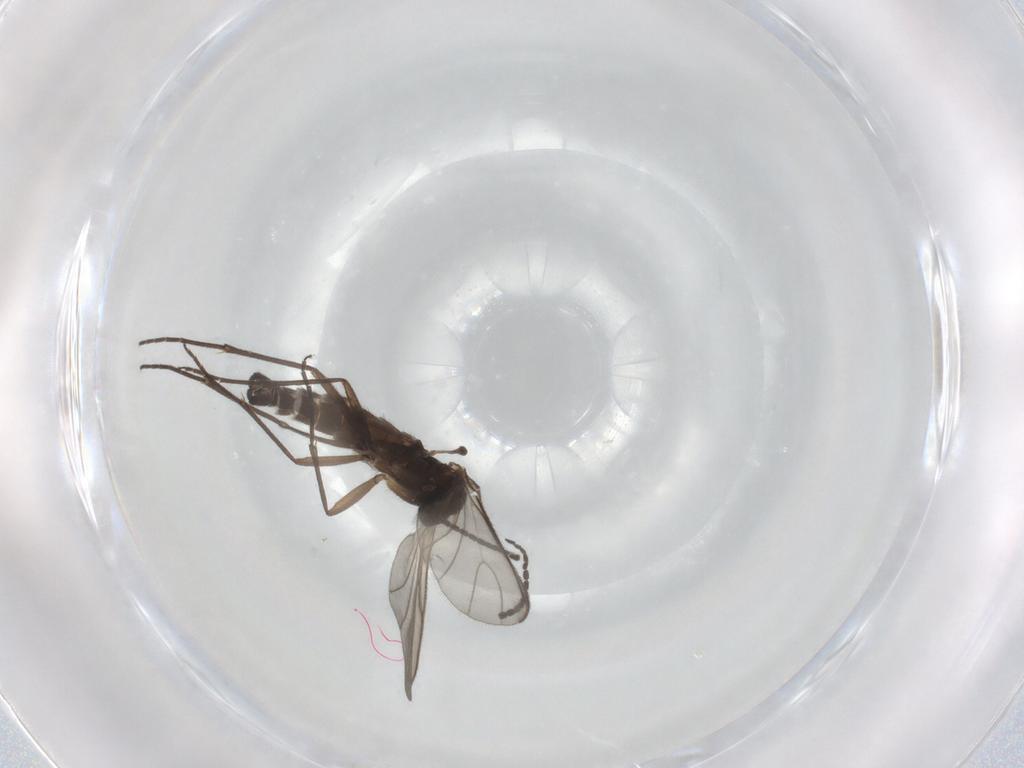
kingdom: Animalia
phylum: Arthropoda
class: Insecta
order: Diptera
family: Sciaridae
